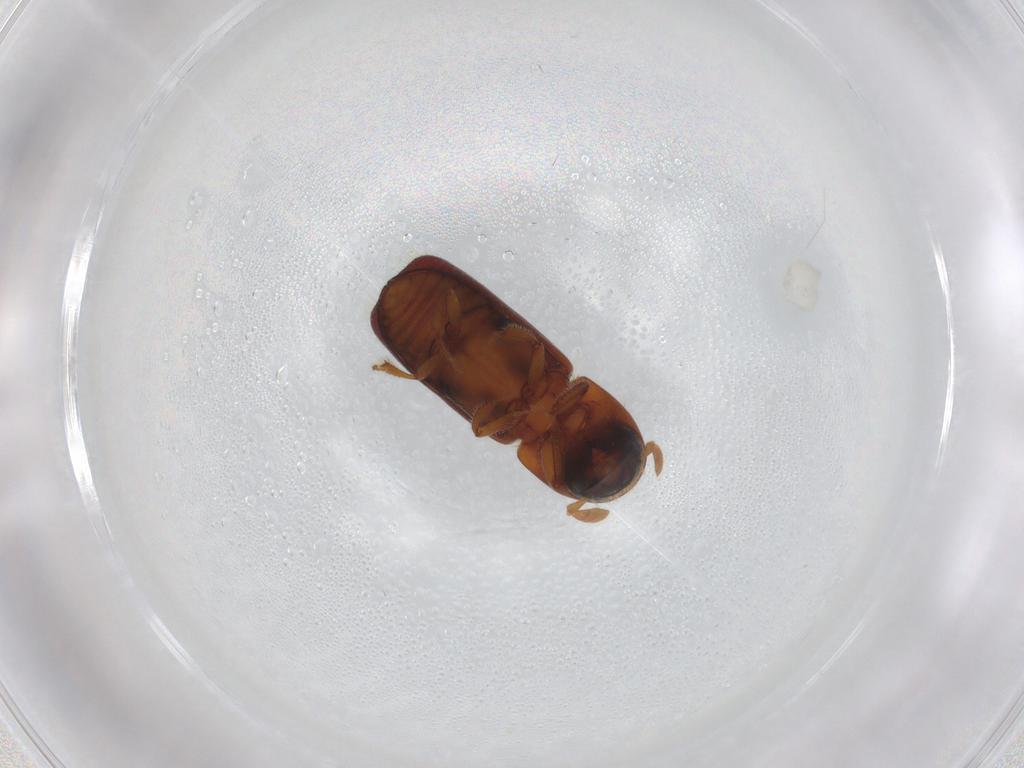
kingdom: Animalia
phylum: Arthropoda
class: Insecta
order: Coleoptera
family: Curculionidae
